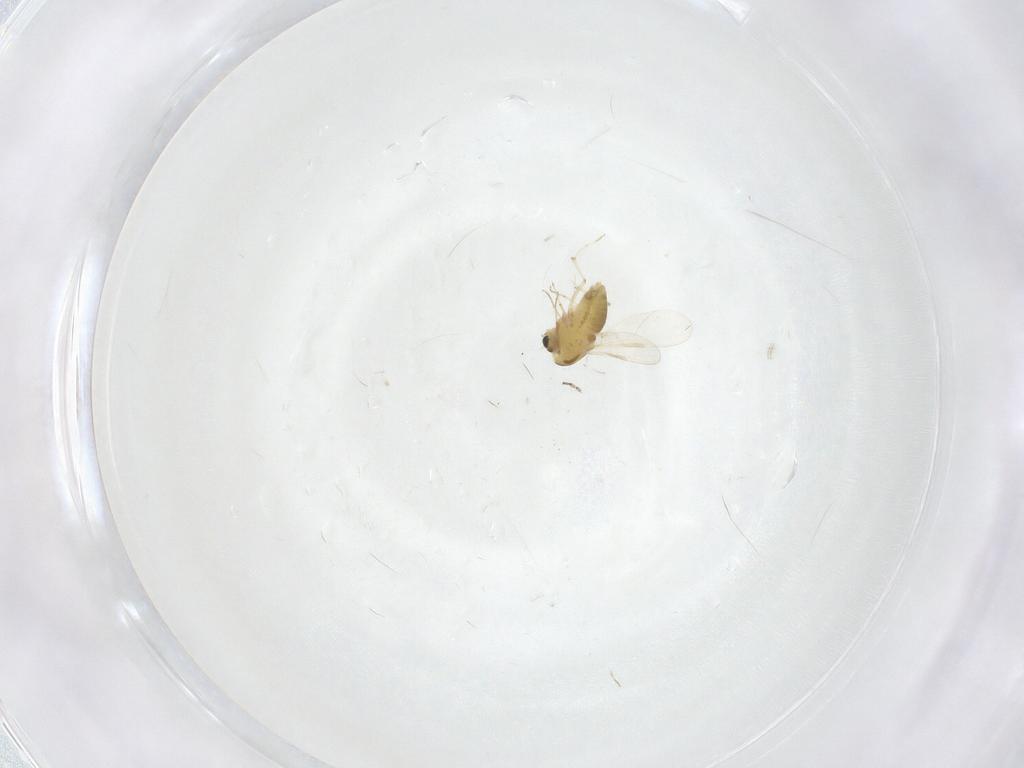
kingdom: Animalia
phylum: Arthropoda
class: Insecta
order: Diptera
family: Chironomidae
